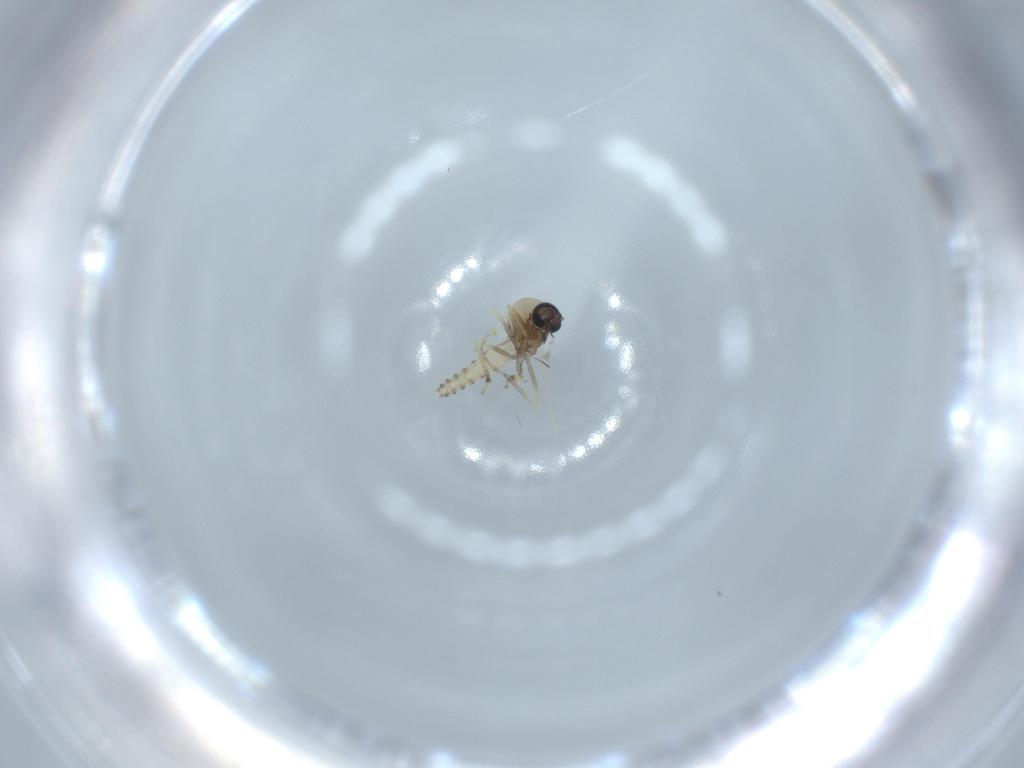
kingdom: Animalia
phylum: Arthropoda
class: Insecta
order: Diptera
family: Ceratopogonidae
